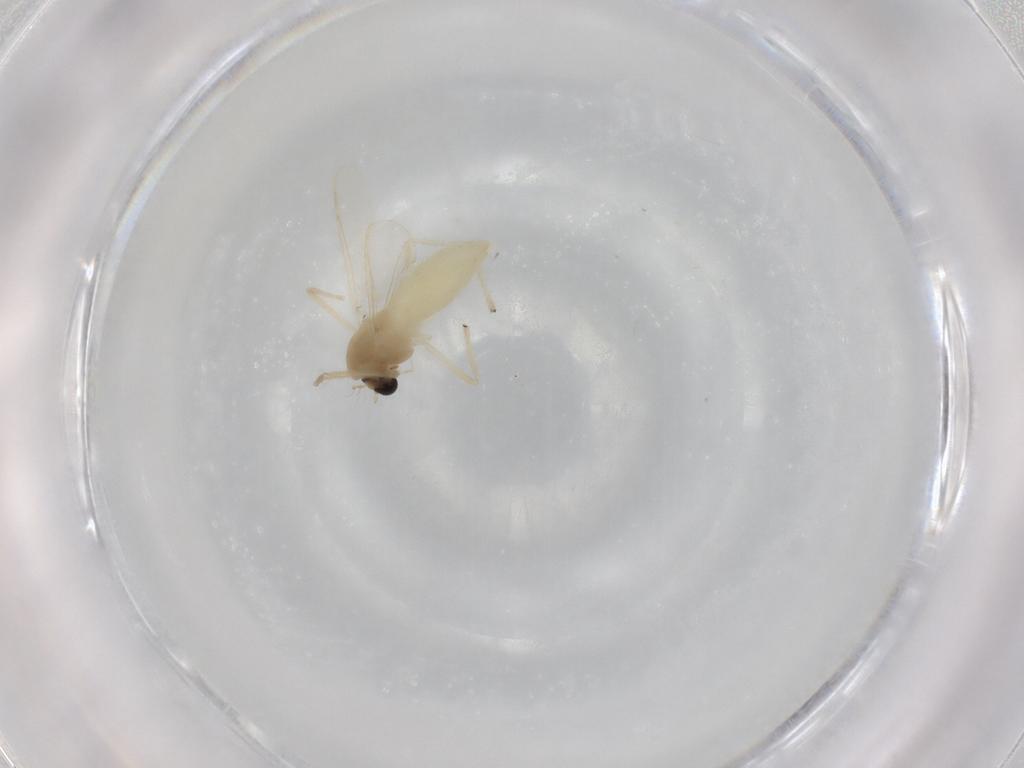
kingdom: Animalia
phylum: Arthropoda
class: Insecta
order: Diptera
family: Chironomidae
